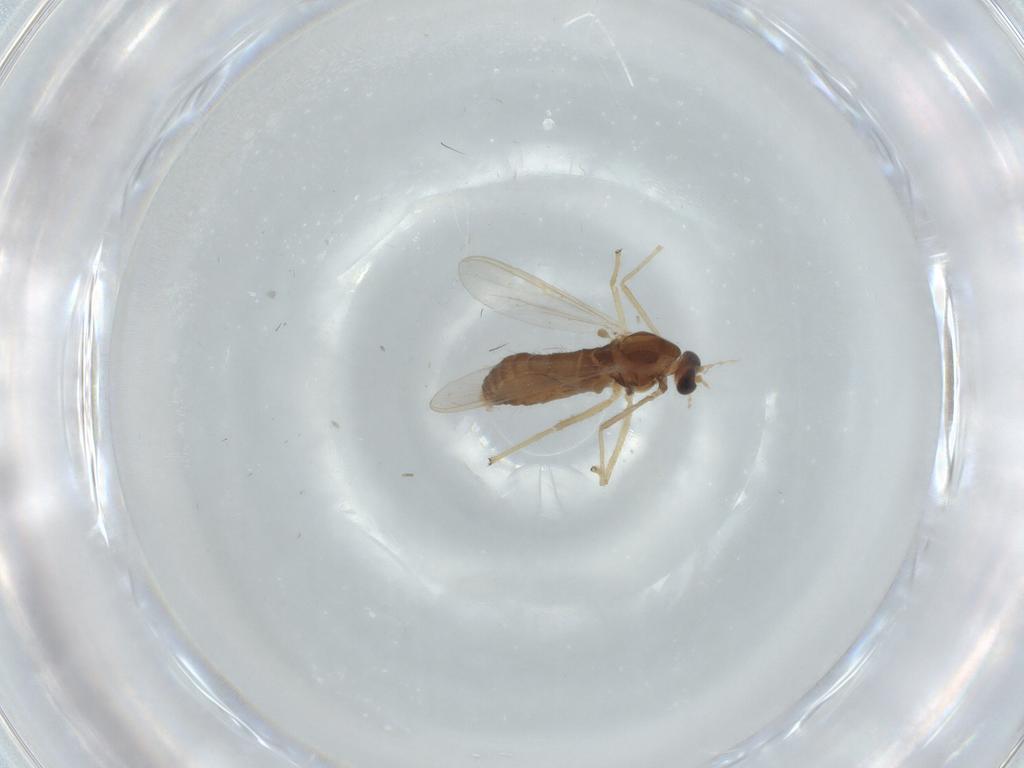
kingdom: Animalia
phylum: Arthropoda
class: Insecta
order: Diptera
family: Chironomidae
